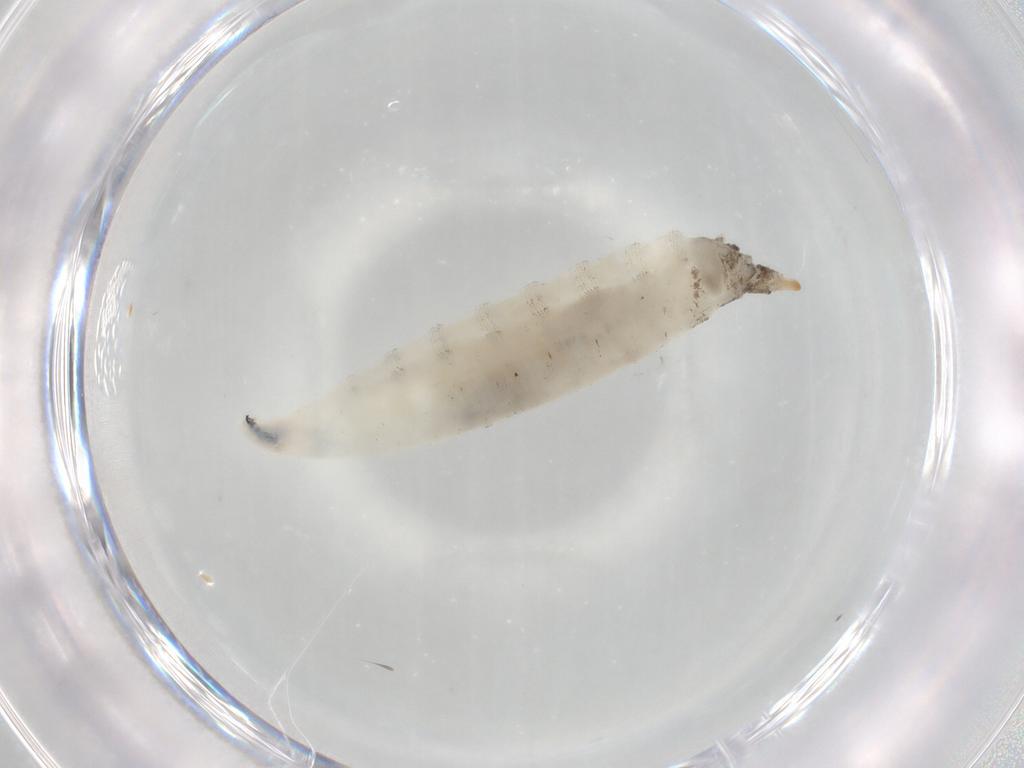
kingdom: Animalia
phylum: Arthropoda
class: Insecta
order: Diptera
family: Drosophilidae
